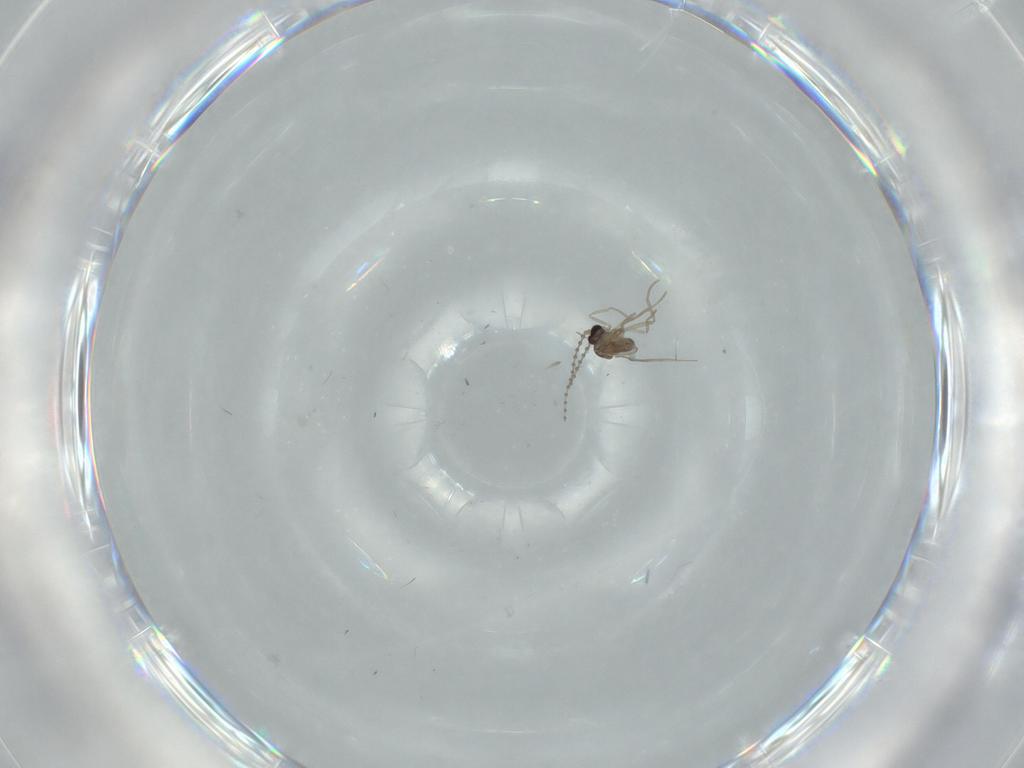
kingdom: Animalia
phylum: Arthropoda
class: Insecta
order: Diptera
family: Cecidomyiidae
